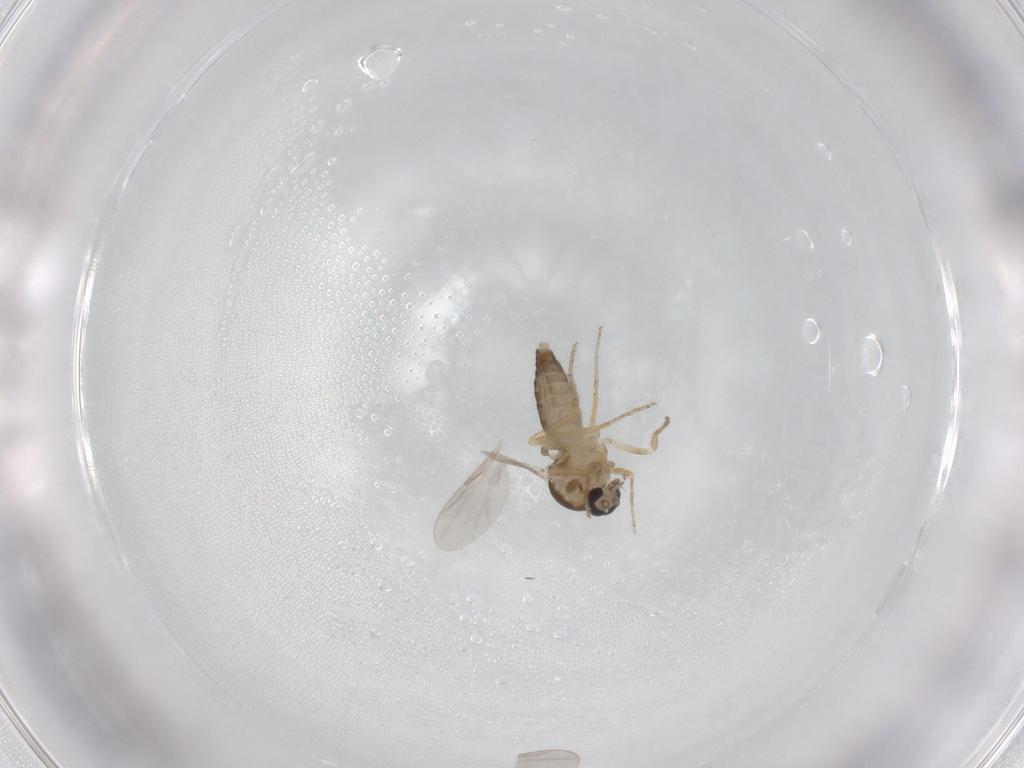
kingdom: Animalia
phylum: Arthropoda
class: Insecta
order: Diptera
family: Ceratopogonidae
